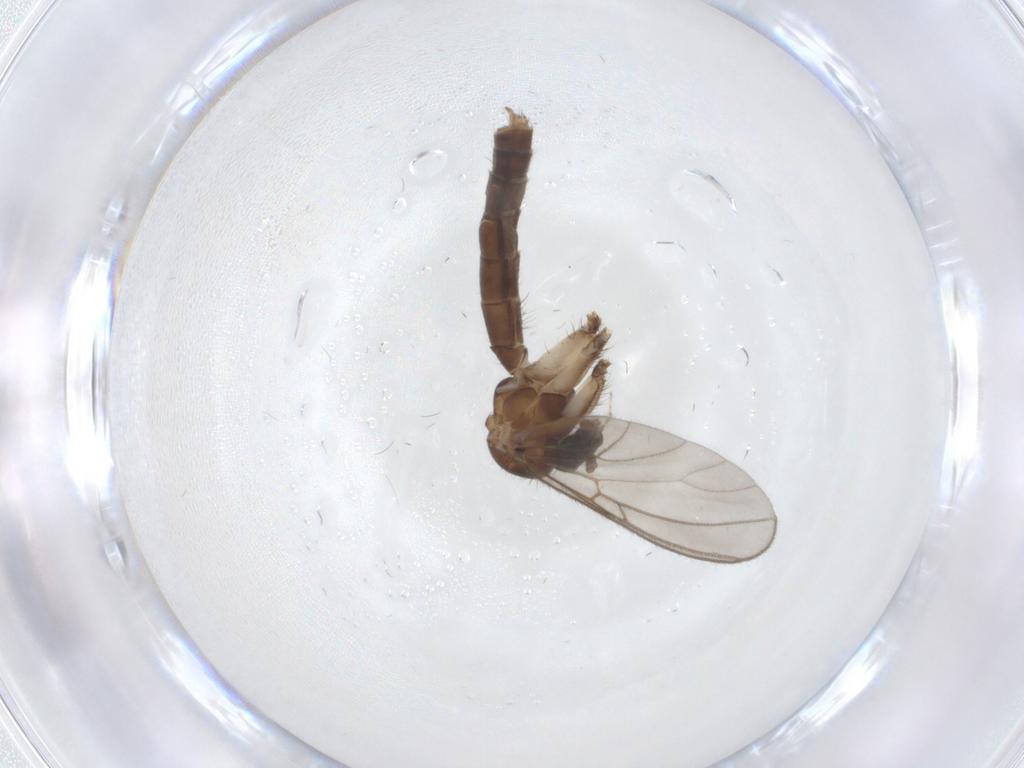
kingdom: Animalia
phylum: Arthropoda
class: Insecta
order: Diptera
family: Mycetophilidae
